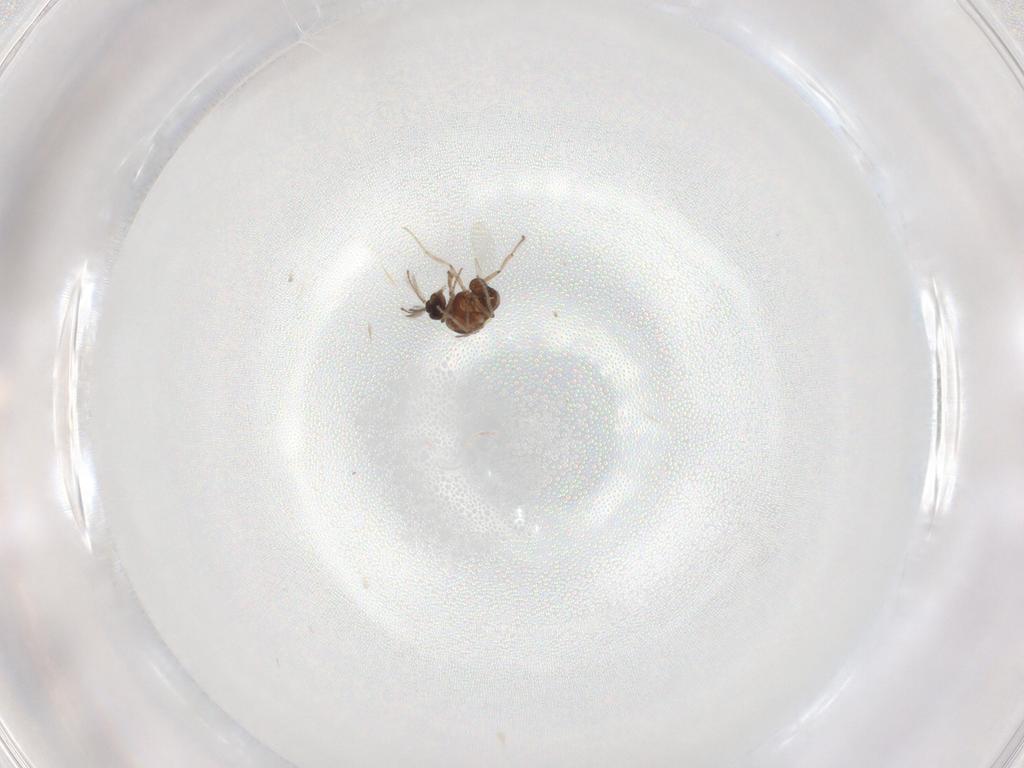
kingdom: Animalia
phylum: Arthropoda
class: Insecta
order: Diptera
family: Ceratopogonidae
